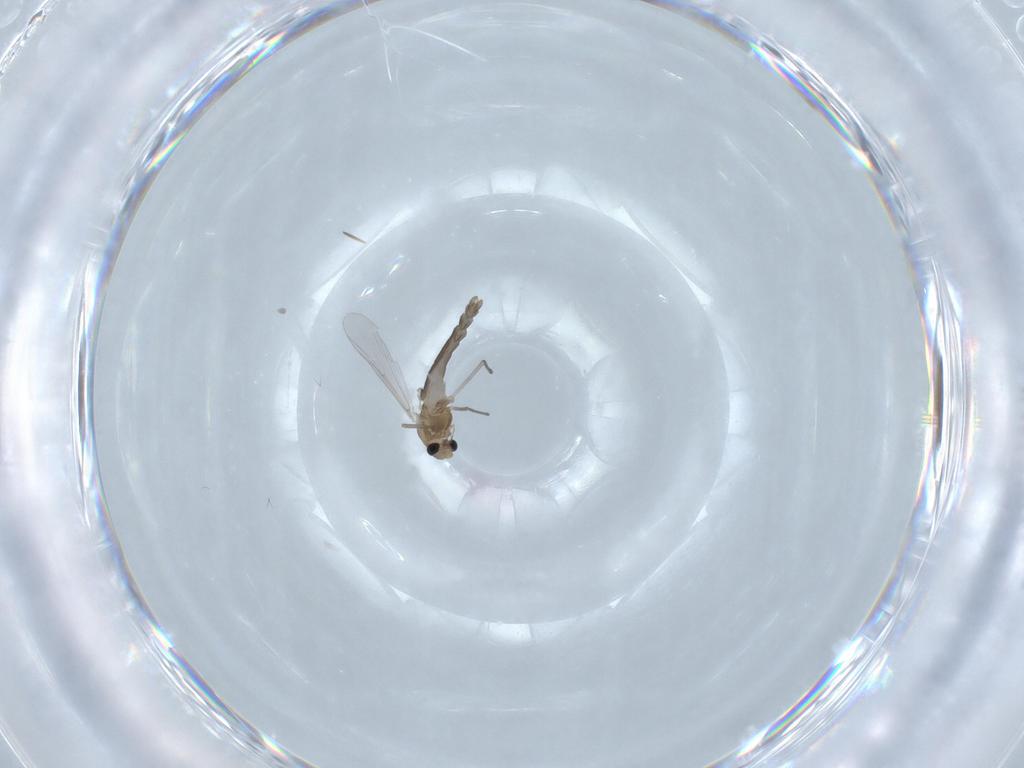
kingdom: Animalia
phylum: Arthropoda
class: Insecta
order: Diptera
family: Chironomidae
